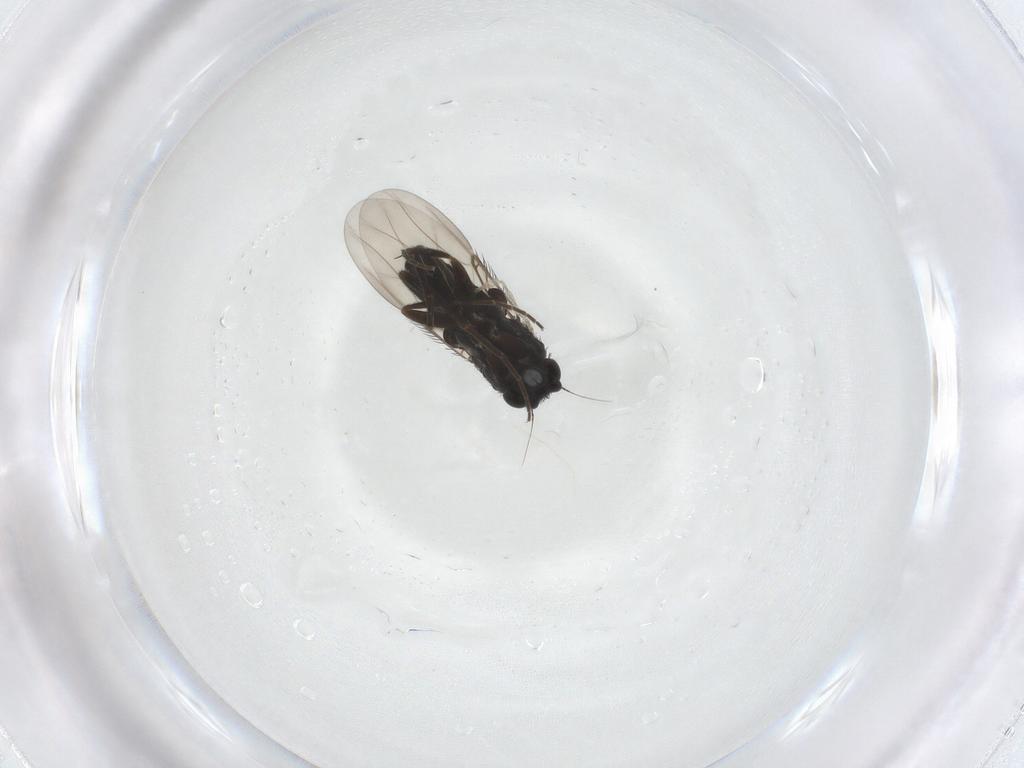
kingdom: Animalia
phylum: Arthropoda
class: Insecta
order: Diptera
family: Phoridae
